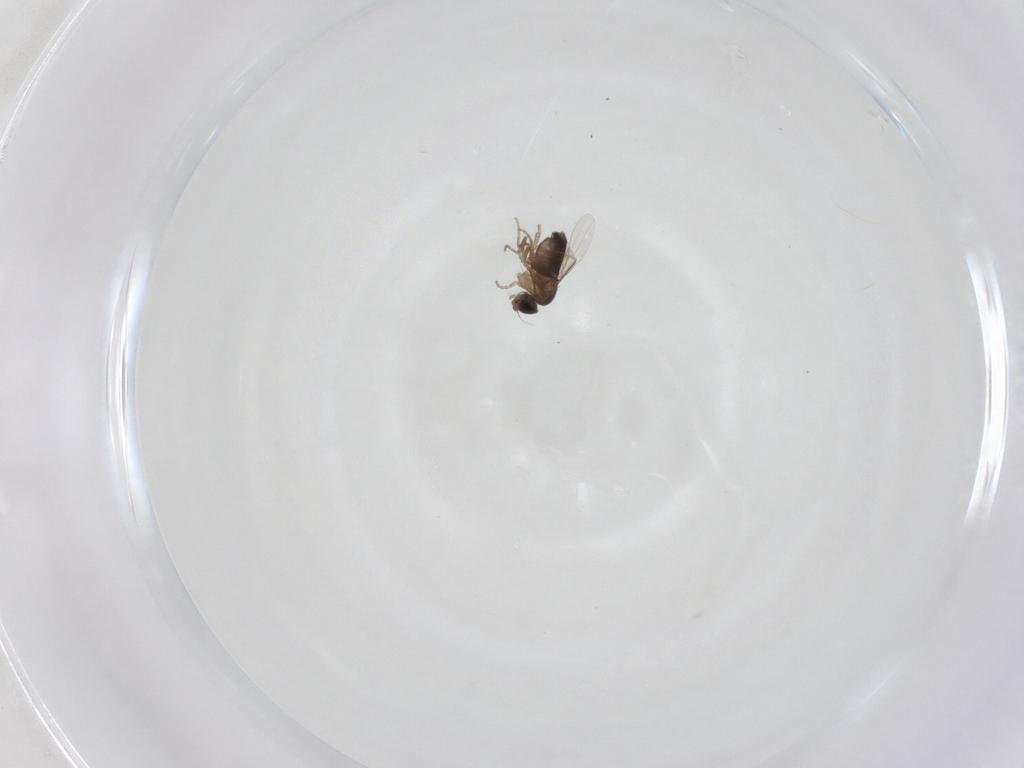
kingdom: Animalia
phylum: Arthropoda
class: Insecta
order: Diptera
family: Phoridae
